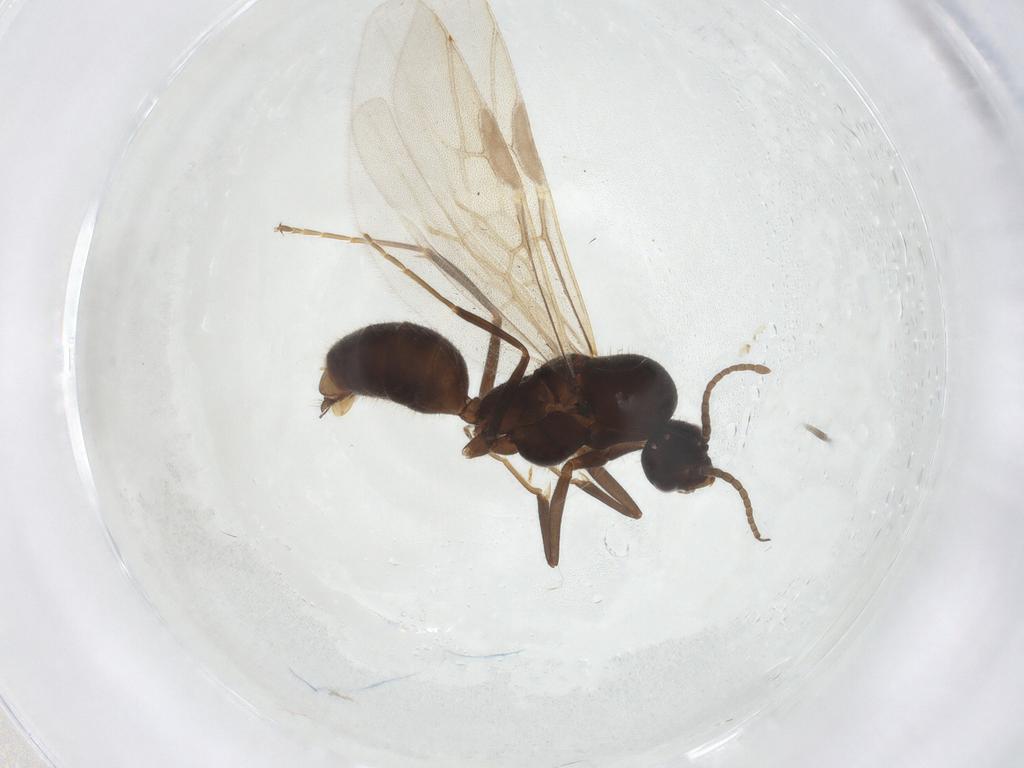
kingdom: Animalia
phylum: Arthropoda
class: Insecta
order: Hymenoptera
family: Formicidae
